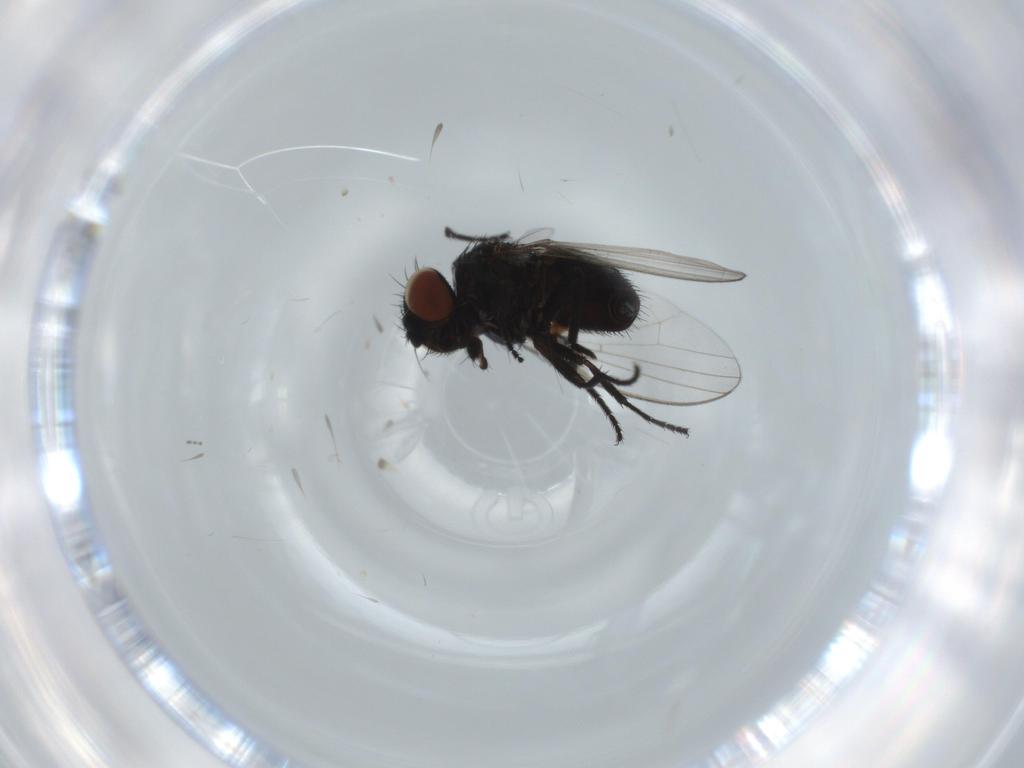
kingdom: Animalia
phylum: Arthropoda
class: Insecta
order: Diptera
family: Milichiidae
